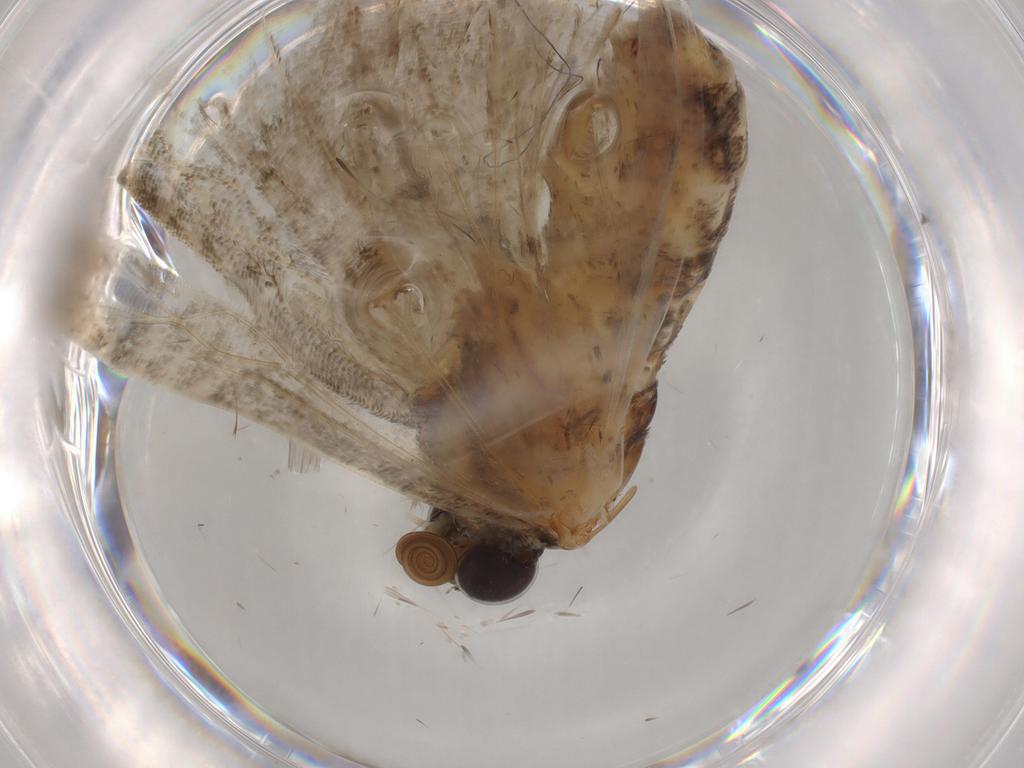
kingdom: Animalia
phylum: Arthropoda
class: Insecta
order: Lepidoptera
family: Geometridae
